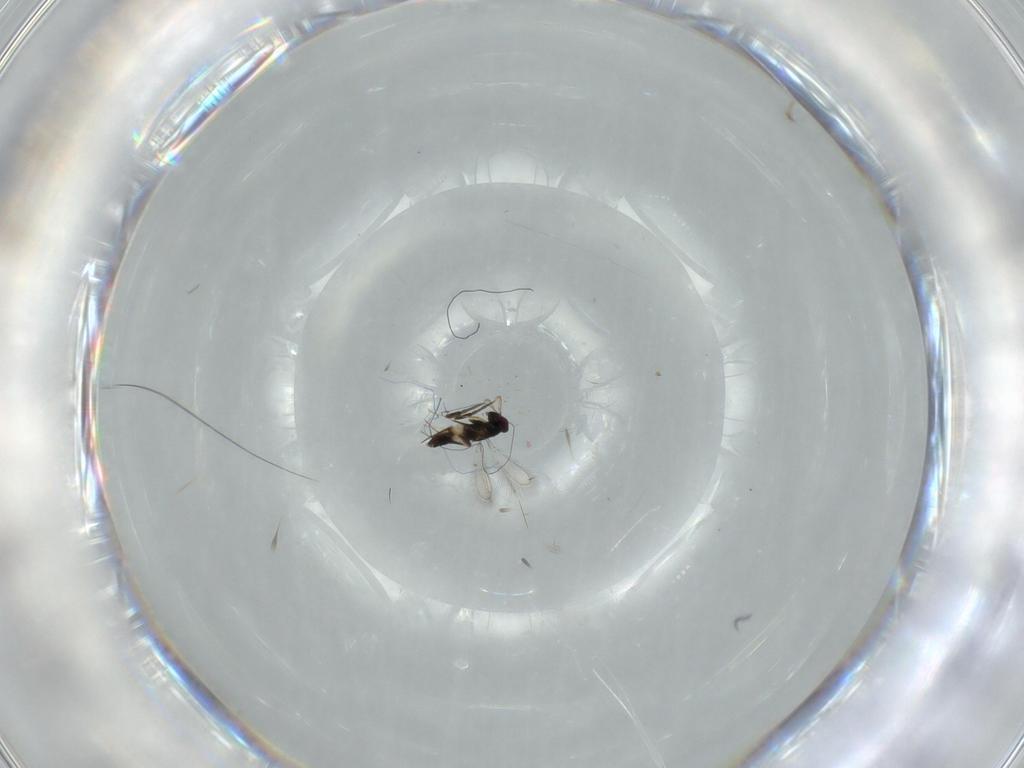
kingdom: Animalia
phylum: Arthropoda
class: Insecta
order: Hymenoptera
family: Mymaridae
